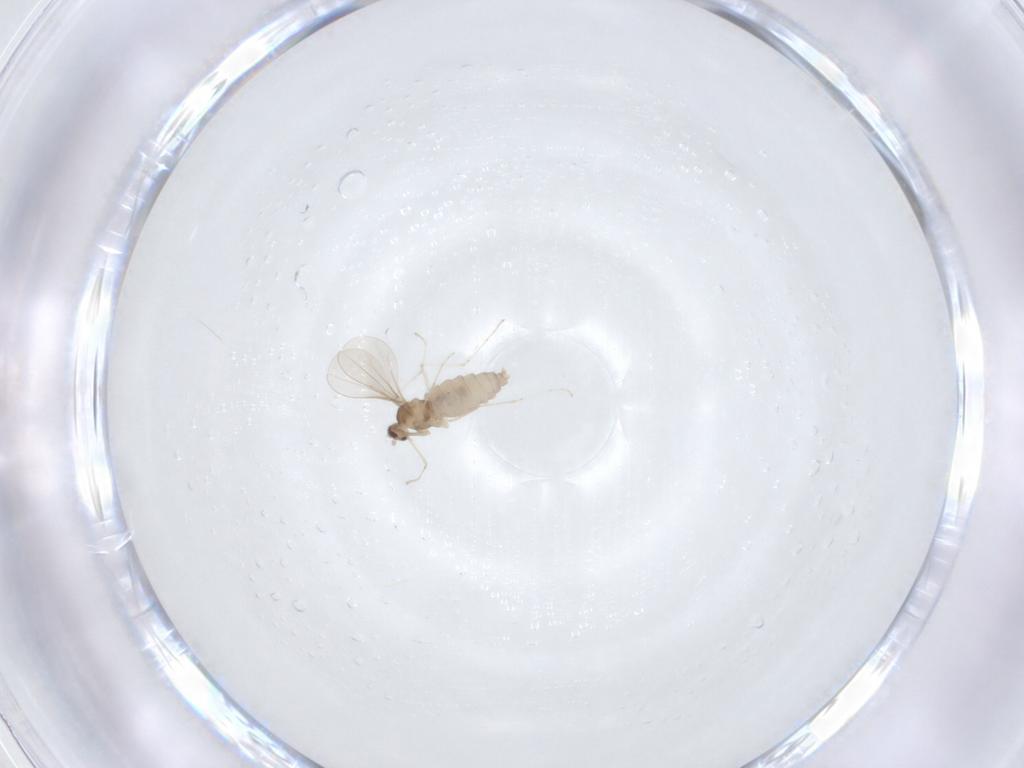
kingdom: Animalia
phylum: Arthropoda
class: Insecta
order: Diptera
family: Cecidomyiidae
